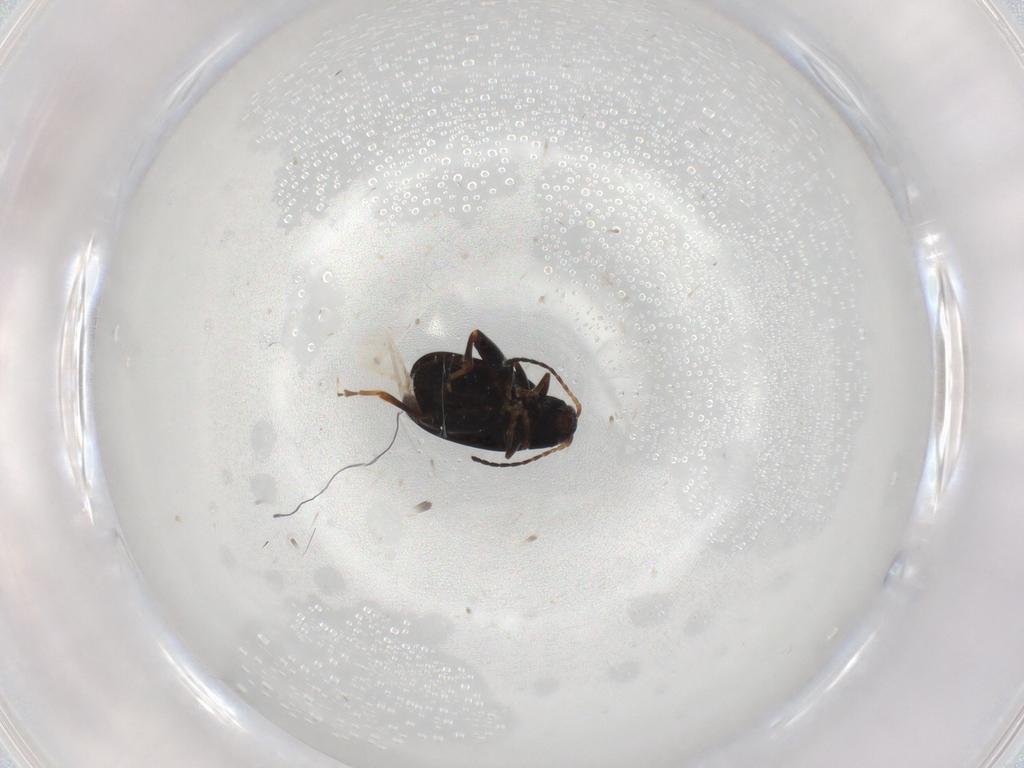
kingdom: Animalia
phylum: Arthropoda
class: Insecta
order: Coleoptera
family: Chrysomelidae
